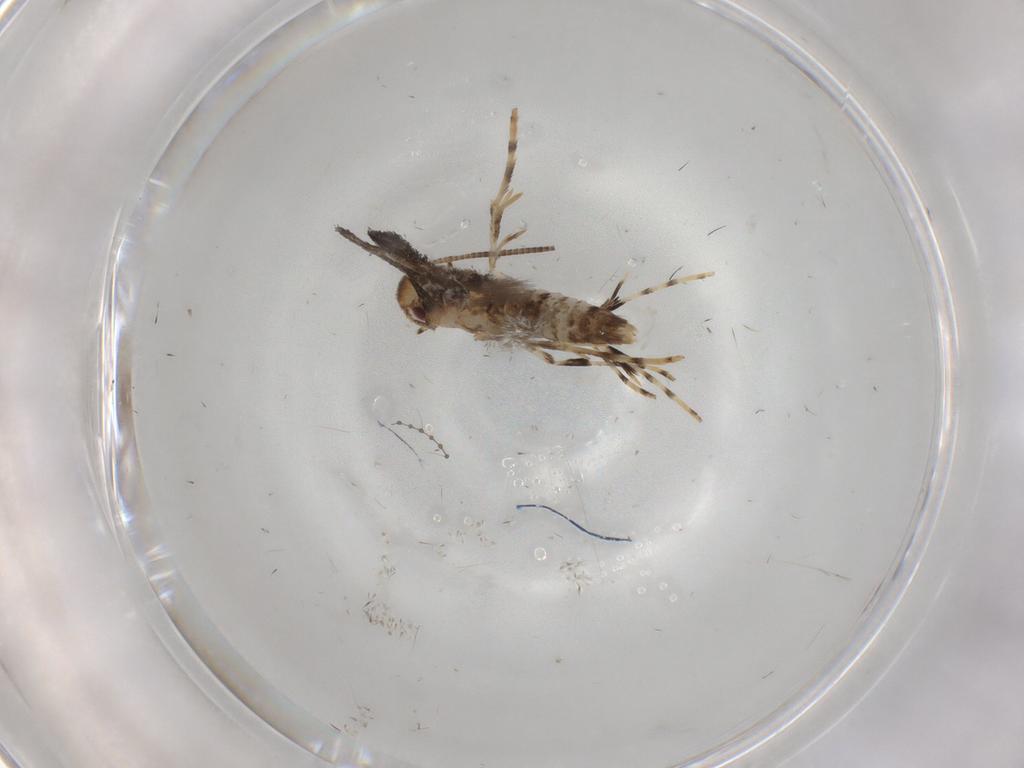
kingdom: Animalia
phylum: Arthropoda
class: Insecta
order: Lepidoptera
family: Gracillariidae
